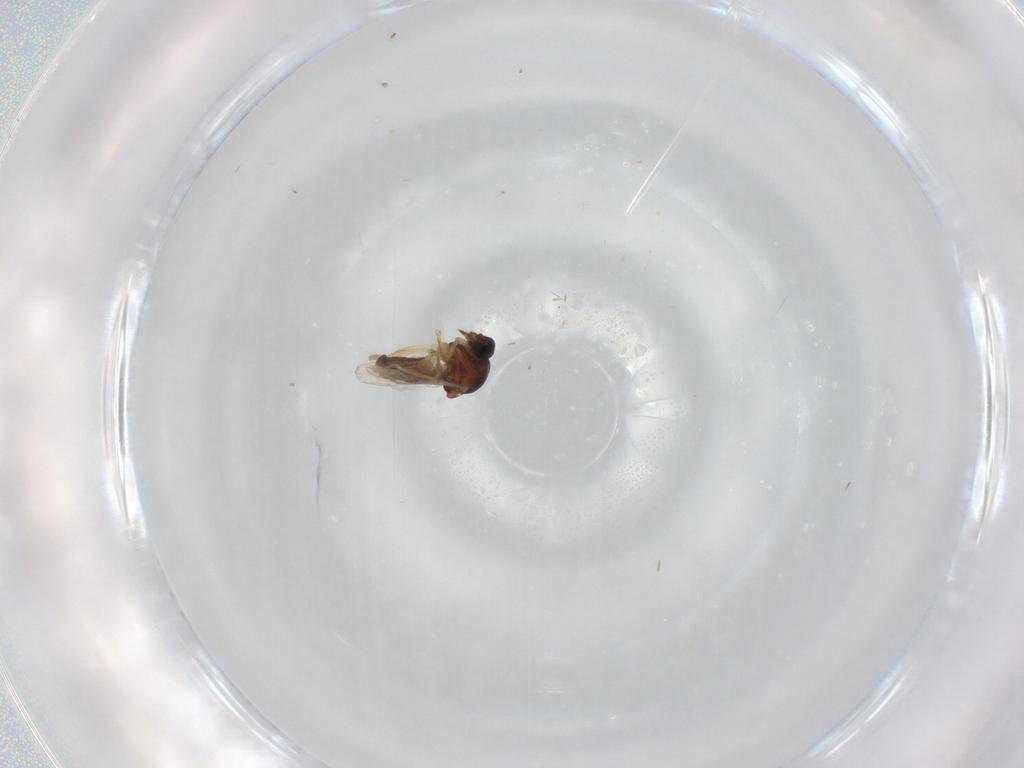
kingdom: Animalia
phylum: Arthropoda
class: Insecta
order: Diptera
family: Ceratopogonidae
